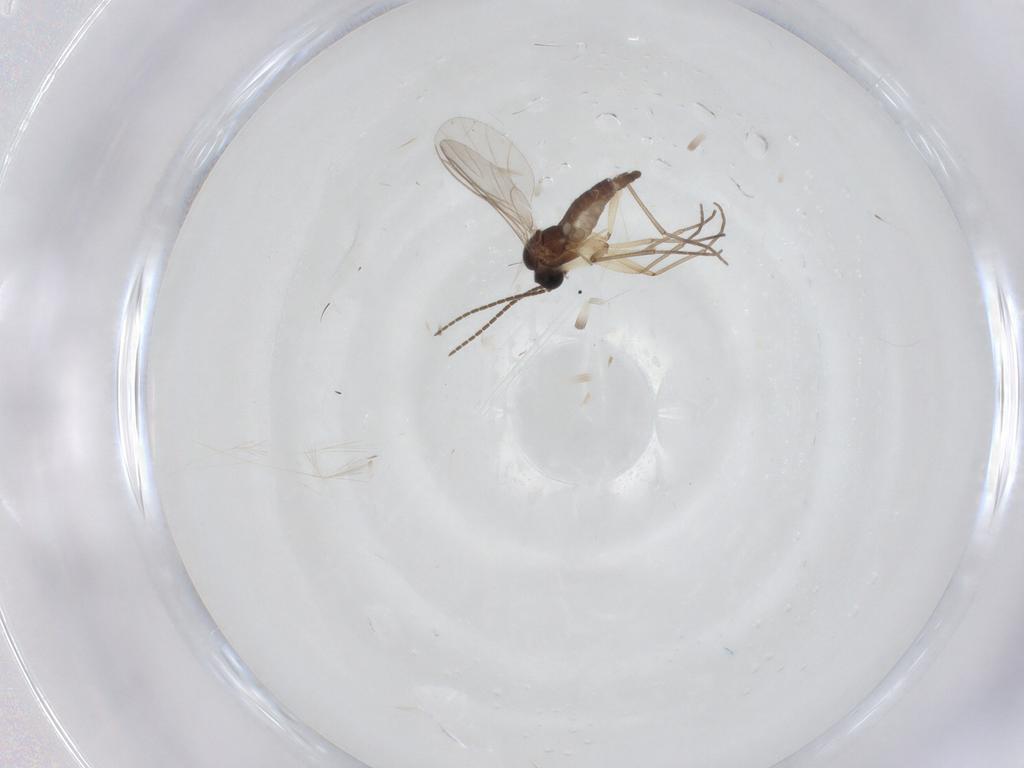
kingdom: Animalia
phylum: Arthropoda
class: Insecta
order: Diptera
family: Sciaridae
